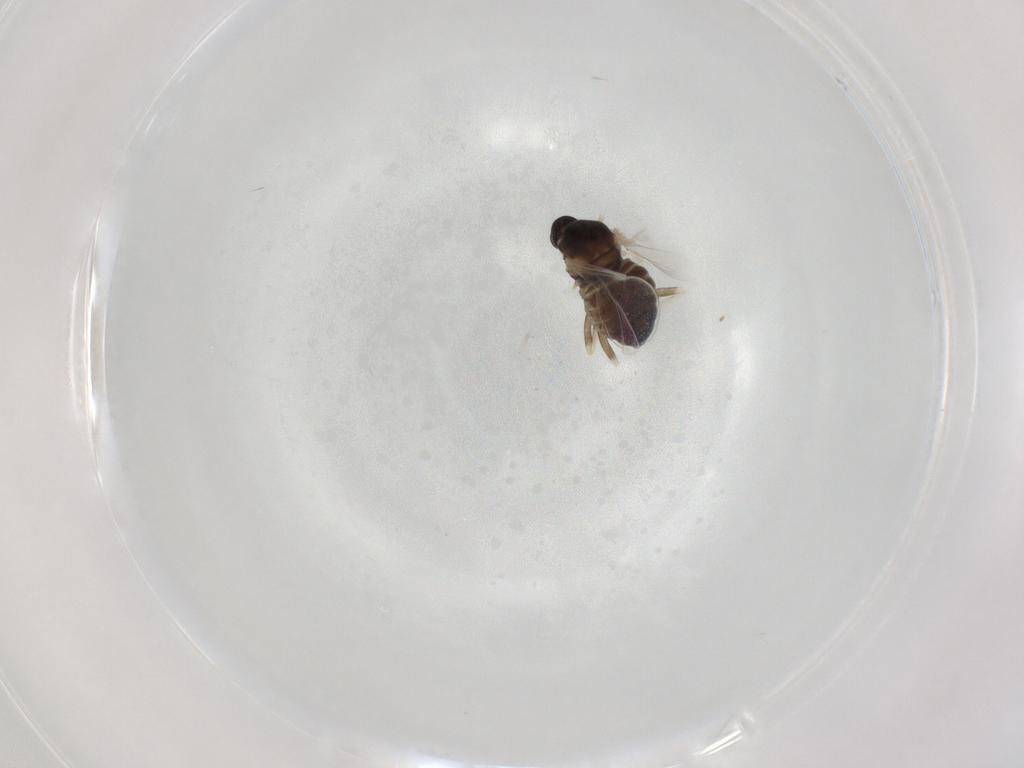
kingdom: Animalia
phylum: Arthropoda
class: Insecta
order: Diptera
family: Cecidomyiidae
